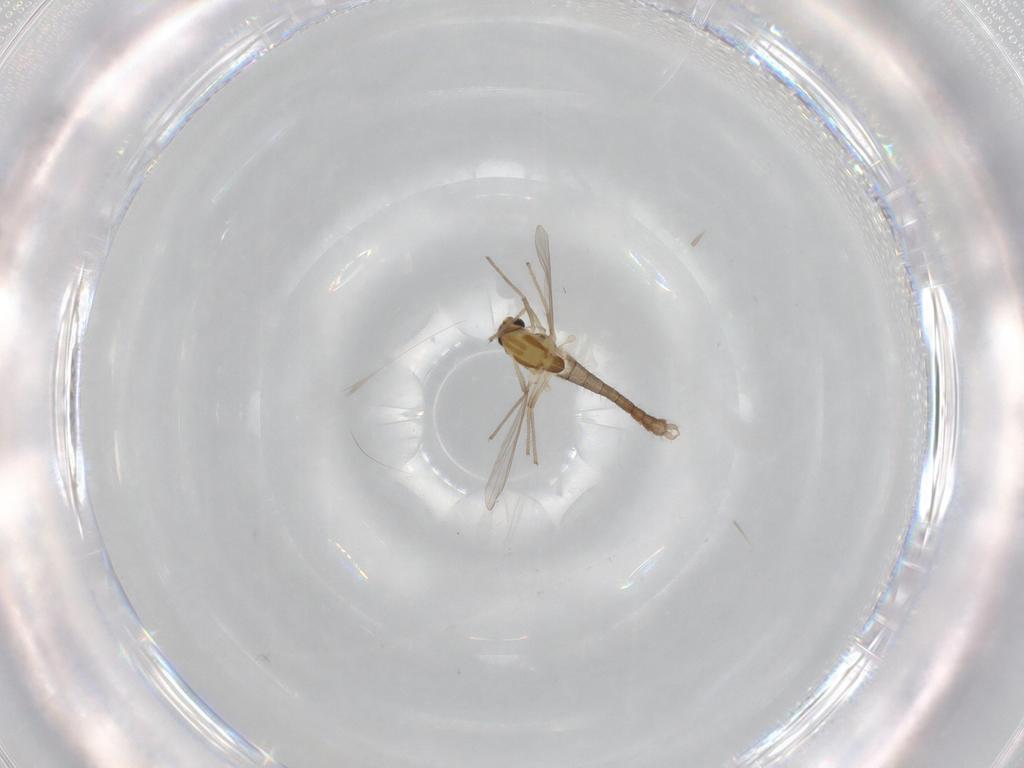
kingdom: Animalia
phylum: Arthropoda
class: Insecta
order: Diptera
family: Chironomidae
